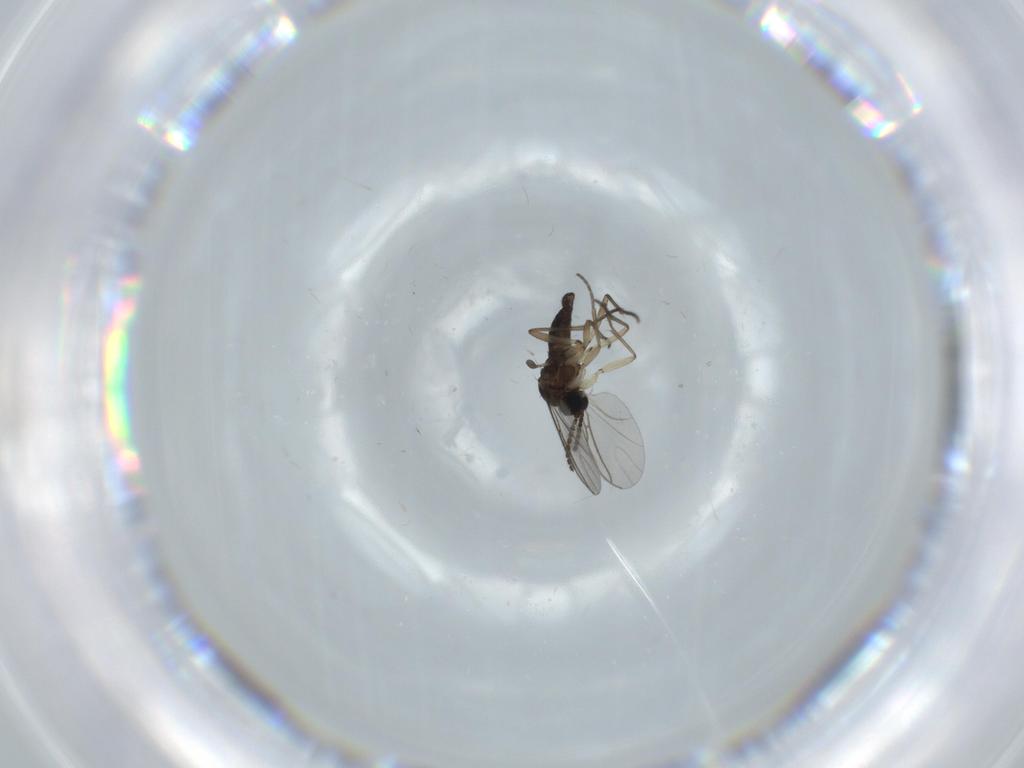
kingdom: Animalia
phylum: Arthropoda
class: Insecta
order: Diptera
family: Sciaridae
